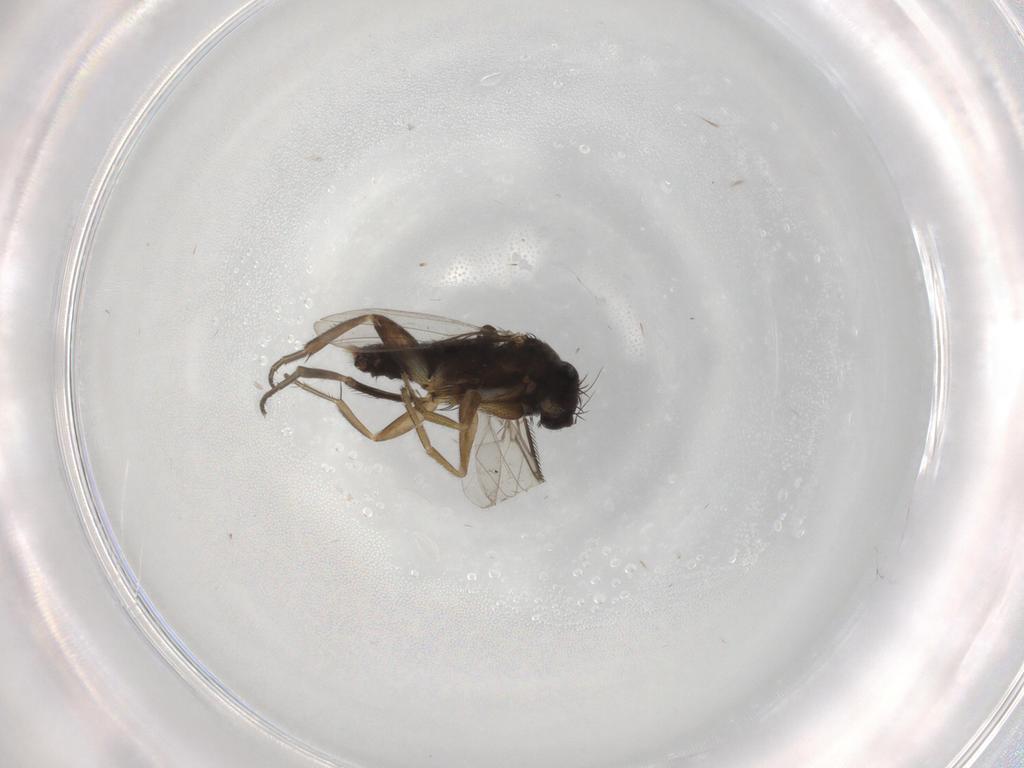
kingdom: Animalia
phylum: Arthropoda
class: Insecta
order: Diptera
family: Phoridae
